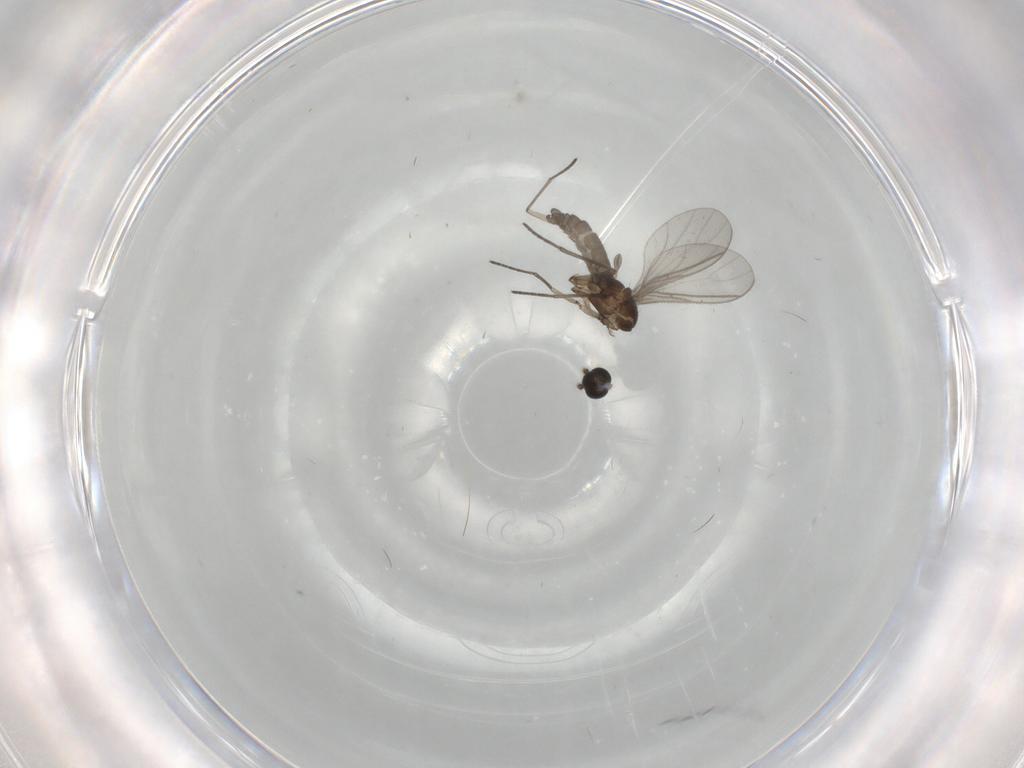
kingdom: Animalia
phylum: Arthropoda
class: Insecta
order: Diptera
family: Sciaridae
